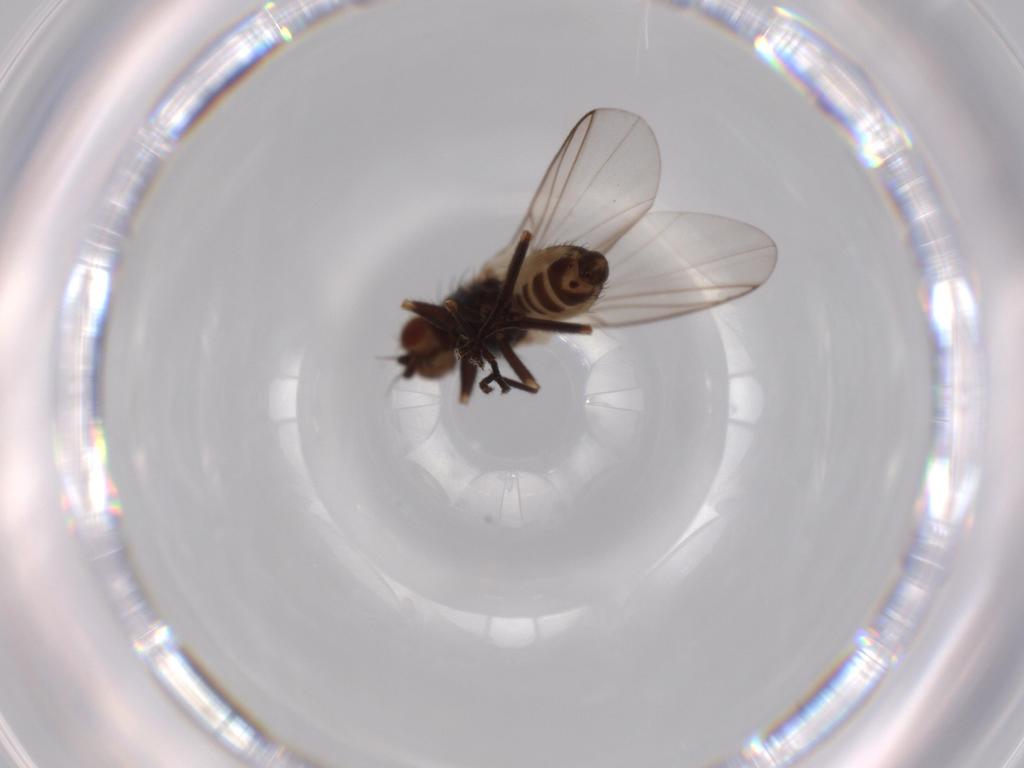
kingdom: Animalia
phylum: Arthropoda
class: Insecta
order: Diptera
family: Agromyzidae
